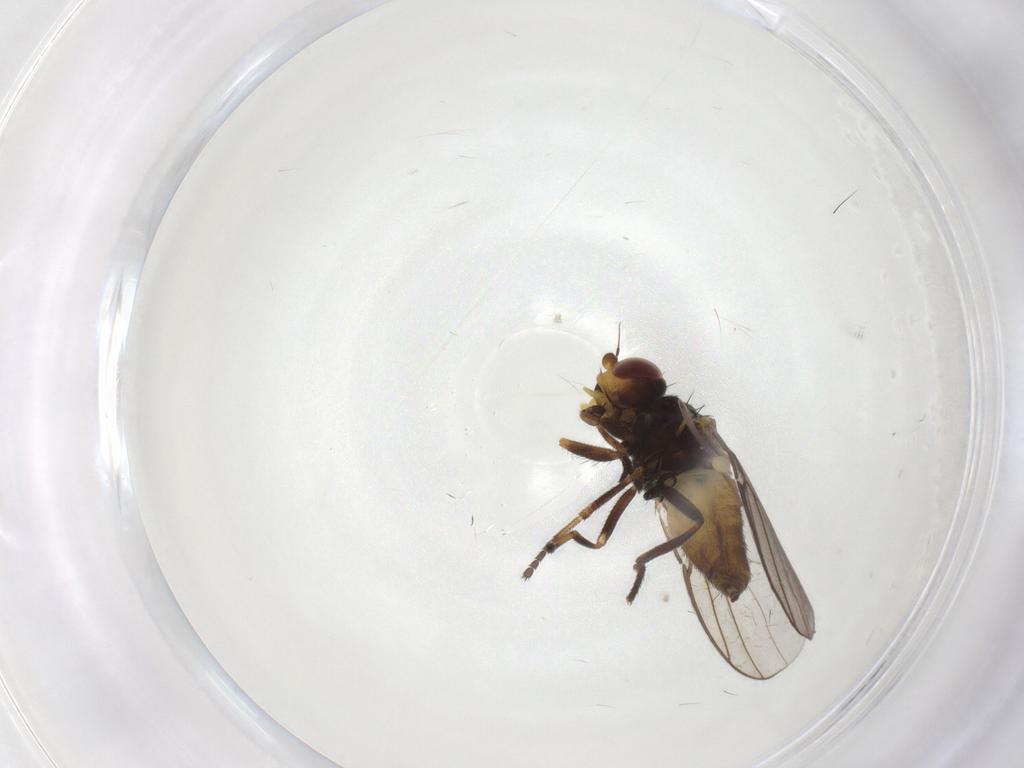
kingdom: Animalia
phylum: Arthropoda
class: Insecta
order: Diptera
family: Chloropidae
